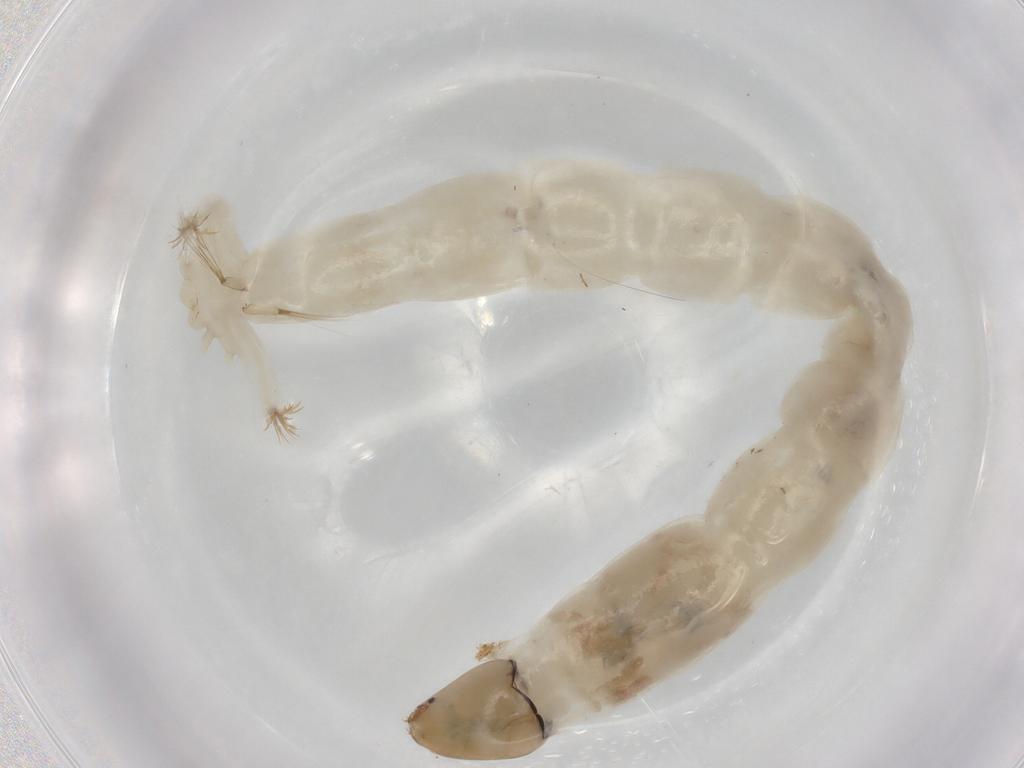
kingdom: Animalia
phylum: Arthropoda
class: Insecta
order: Diptera
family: Chironomidae
